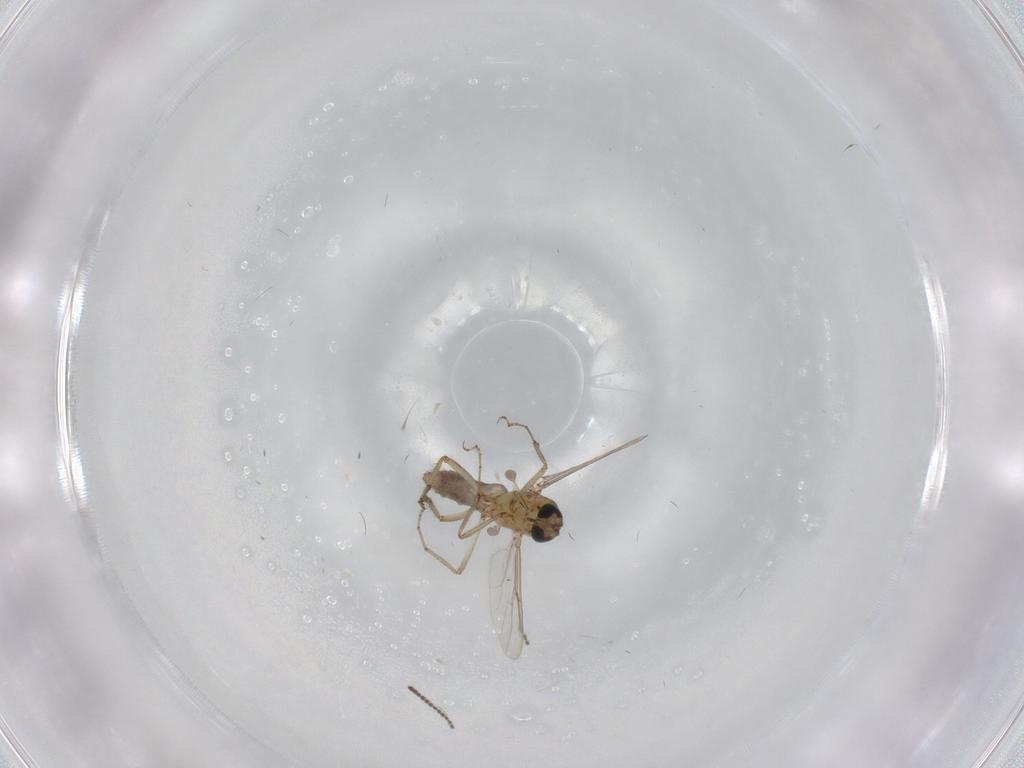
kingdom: Animalia
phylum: Arthropoda
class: Insecta
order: Diptera
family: Ceratopogonidae
